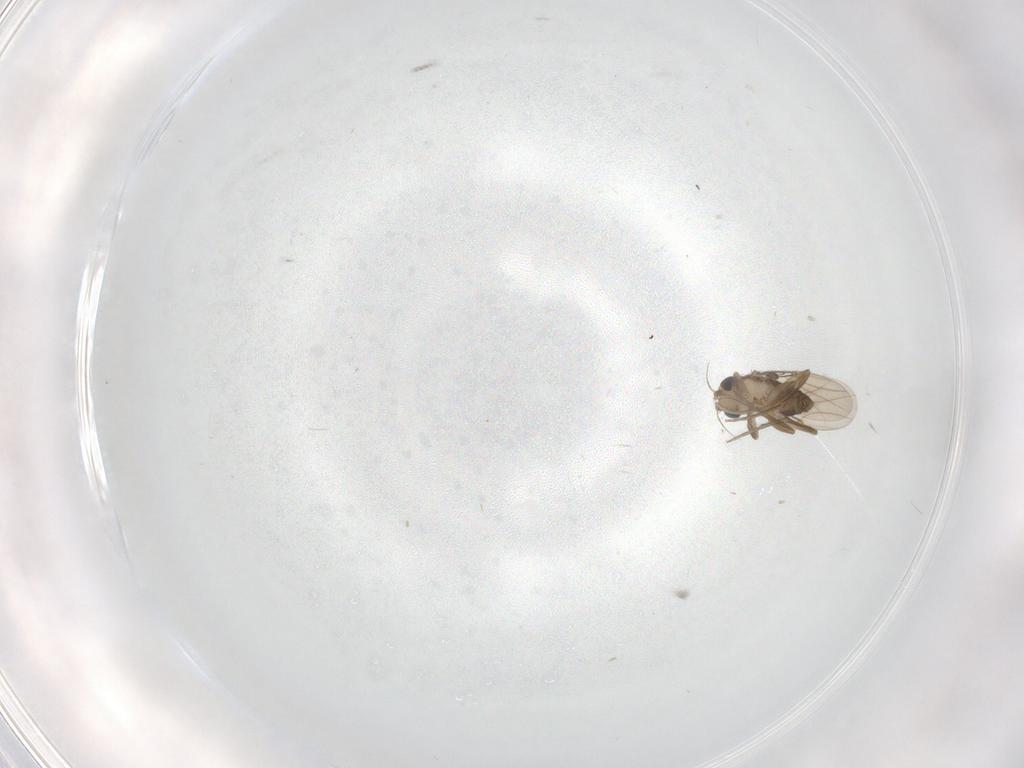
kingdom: Animalia
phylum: Arthropoda
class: Insecta
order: Diptera
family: Phoridae
